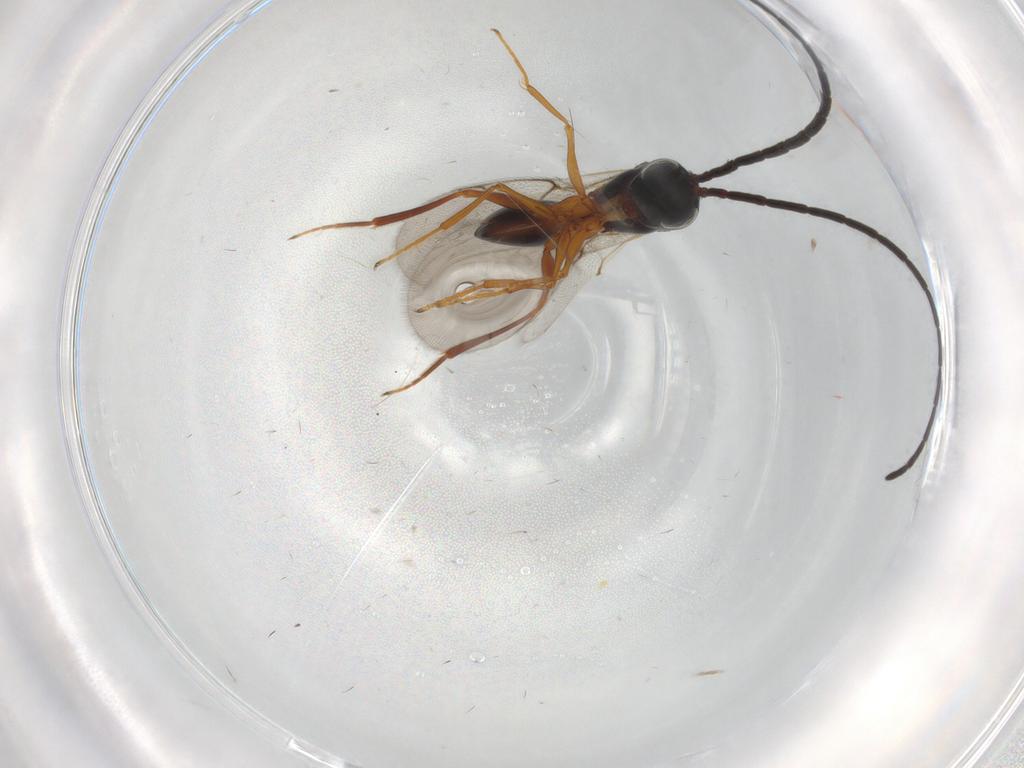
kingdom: Animalia
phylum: Arthropoda
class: Insecta
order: Hymenoptera
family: Figitidae
